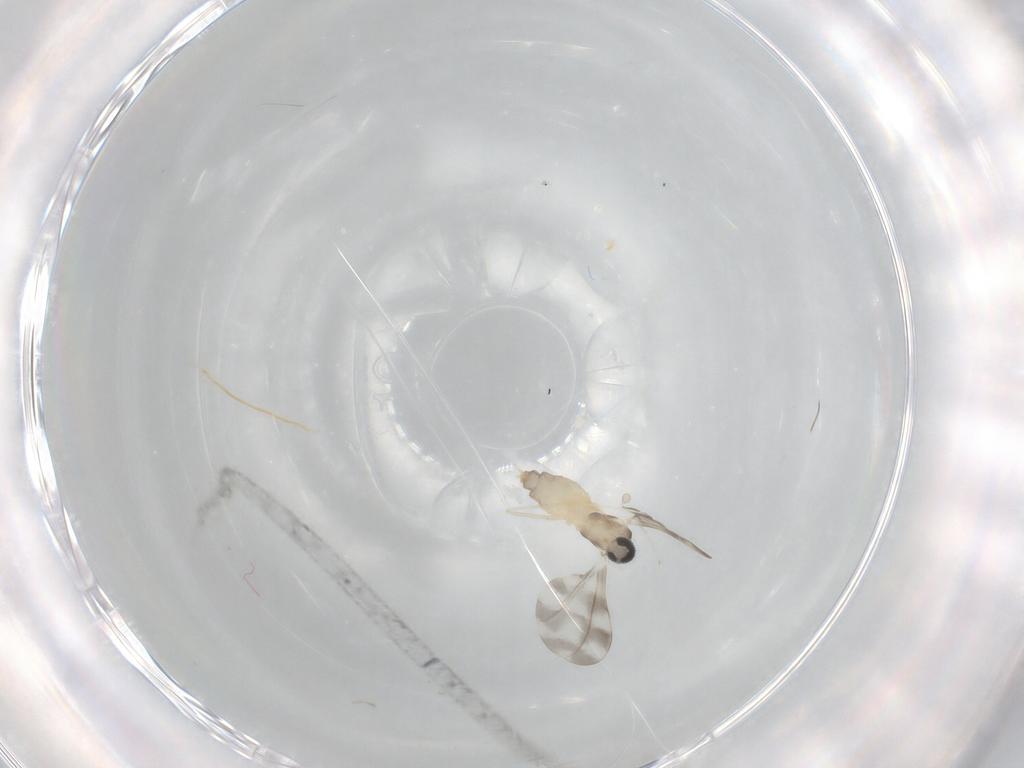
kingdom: Animalia
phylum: Arthropoda
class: Insecta
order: Diptera
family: Cecidomyiidae
